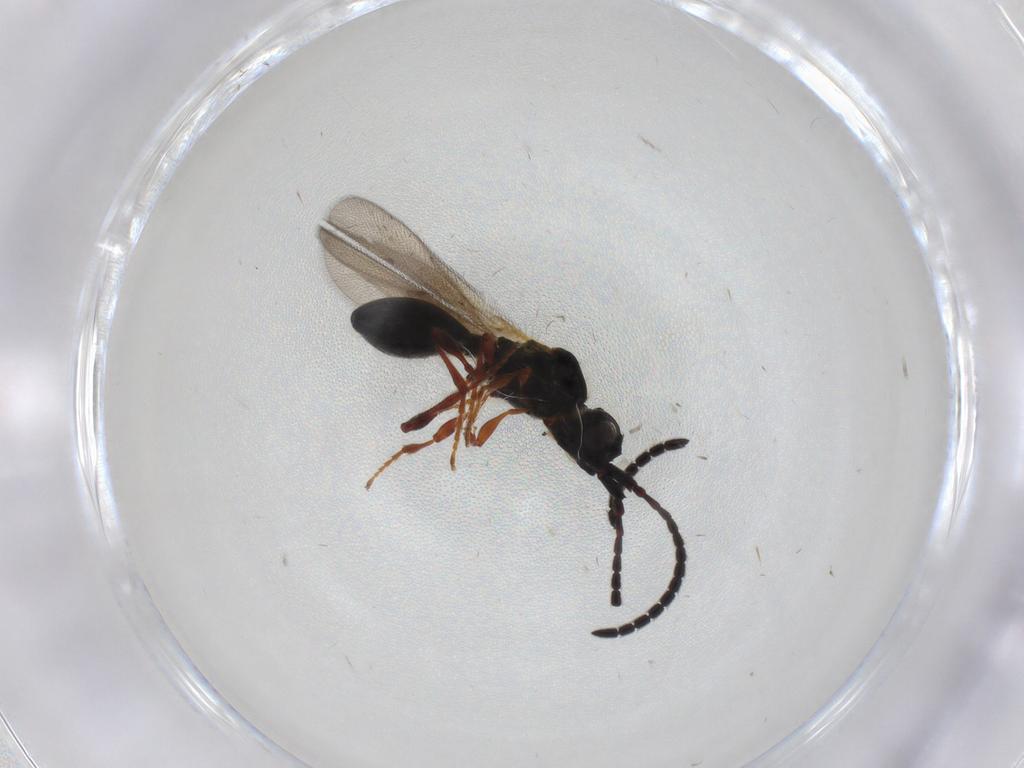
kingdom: Animalia
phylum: Arthropoda
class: Insecta
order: Hymenoptera
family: Diapriidae
